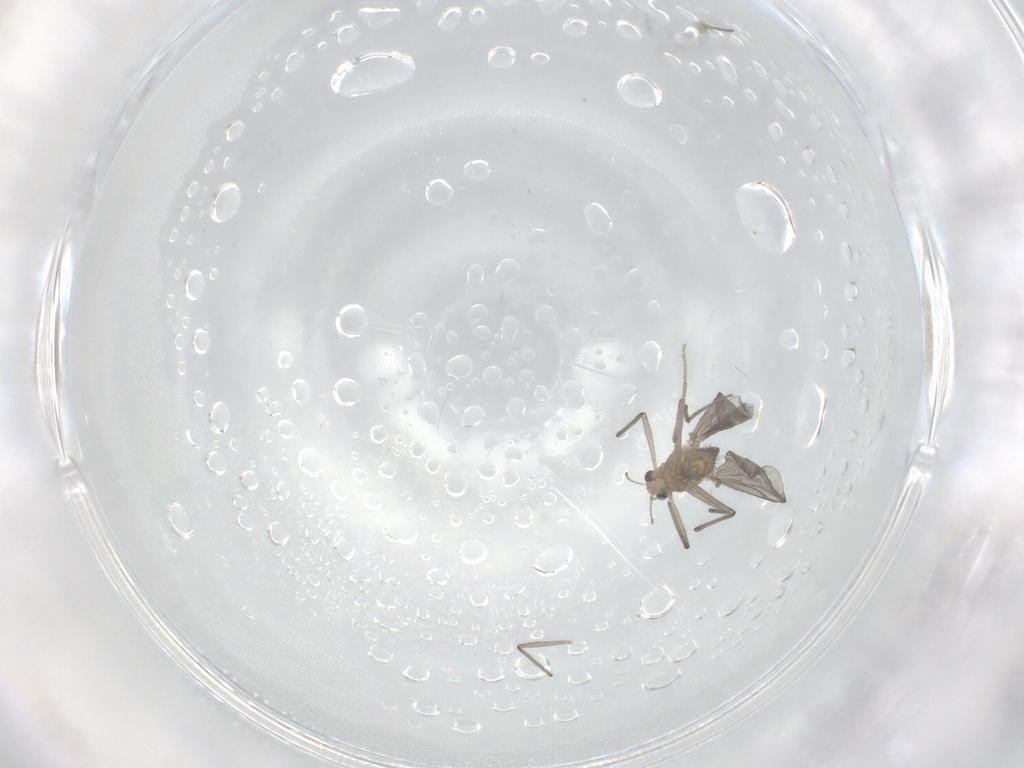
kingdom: Animalia
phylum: Arthropoda
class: Insecta
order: Diptera
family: Chironomidae
